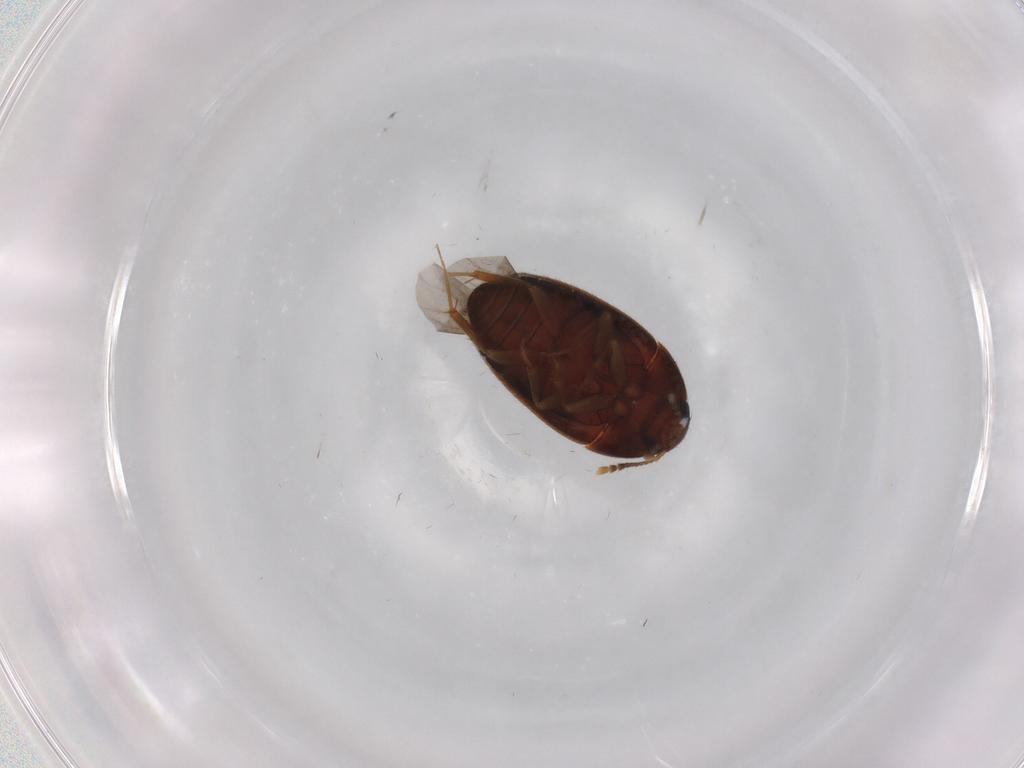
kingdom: Animalia
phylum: Arthropoda
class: Insecta
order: Coleoptera
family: Mycetophagidae
